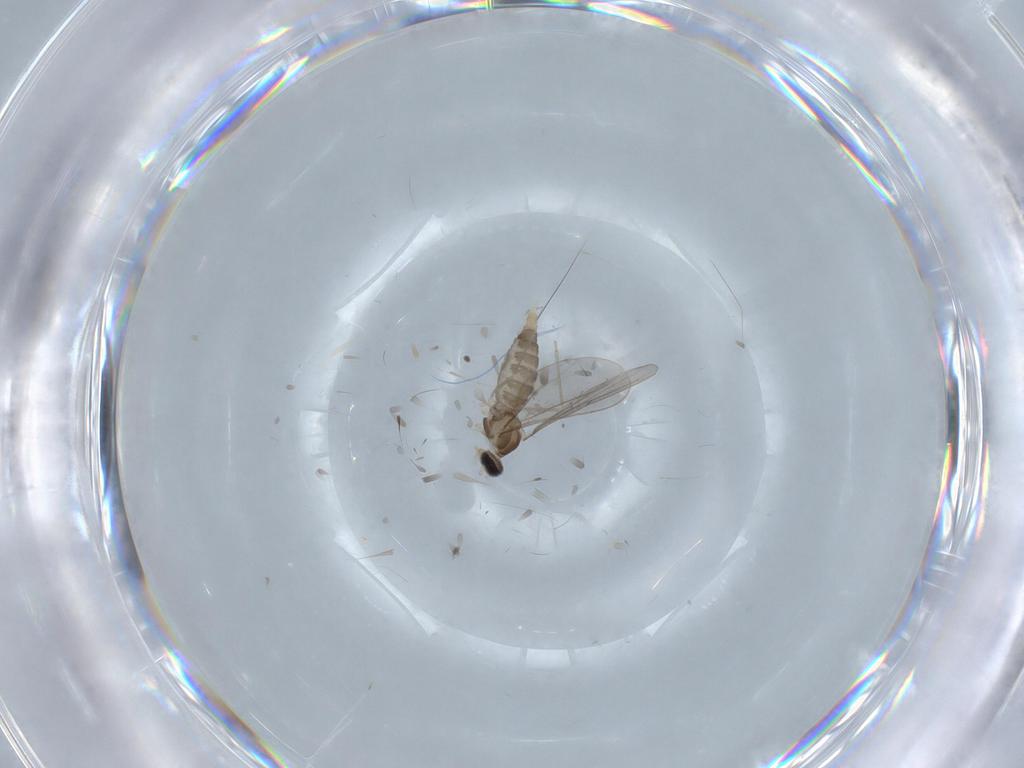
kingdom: Animalia
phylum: Arthropoda
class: Insecta
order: Diptera
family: Cecidomyiidae
